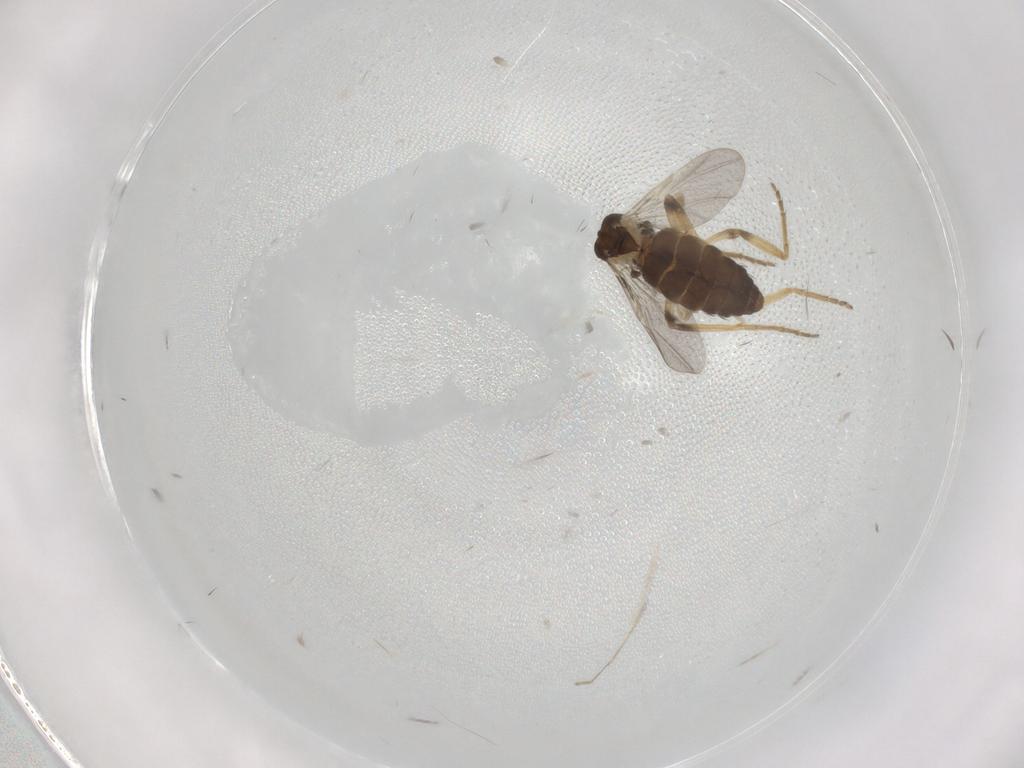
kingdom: Animalia
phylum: Arthropoda
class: Insecta
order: Diptera
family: Ceratopogonidae
